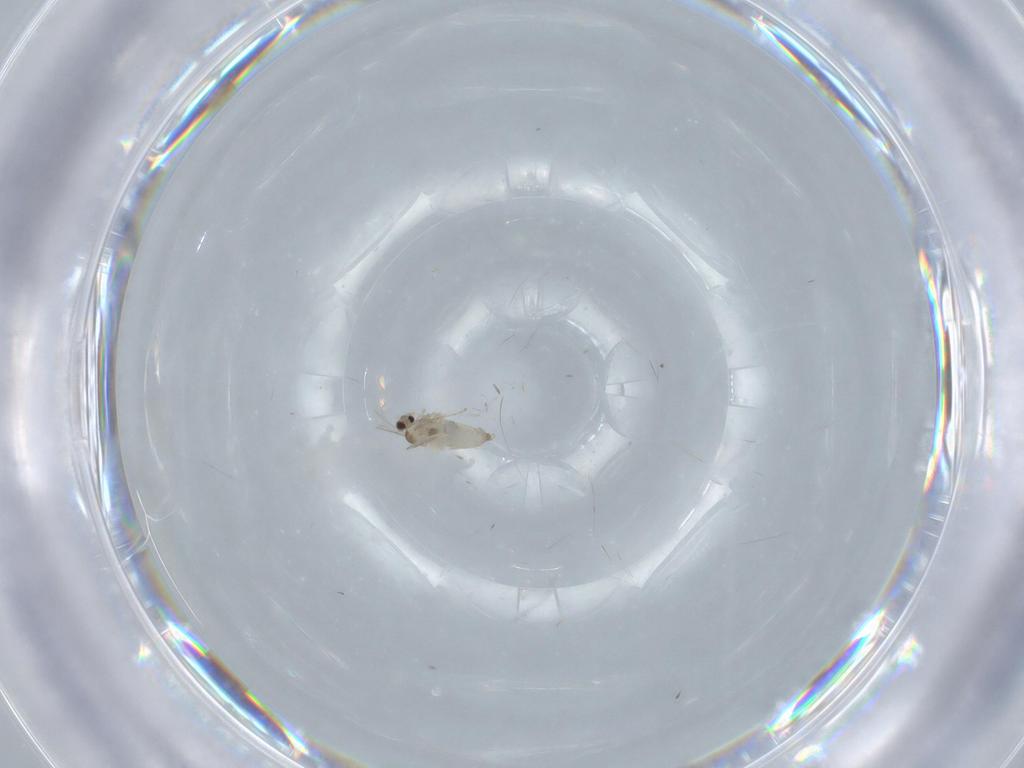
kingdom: Animalia
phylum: Arthropoda
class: Insecta
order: Diptera
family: Cecidomyiidae
